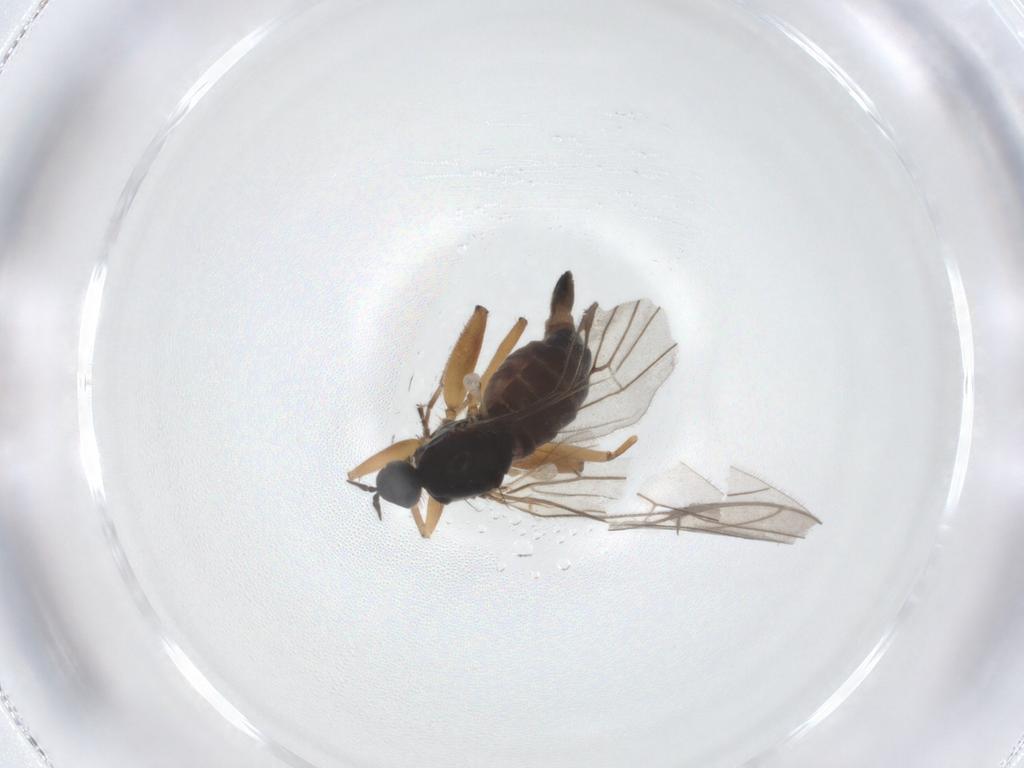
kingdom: Animalia
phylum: Arthropoda
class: Insecta
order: Diptera
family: Hybotidae
